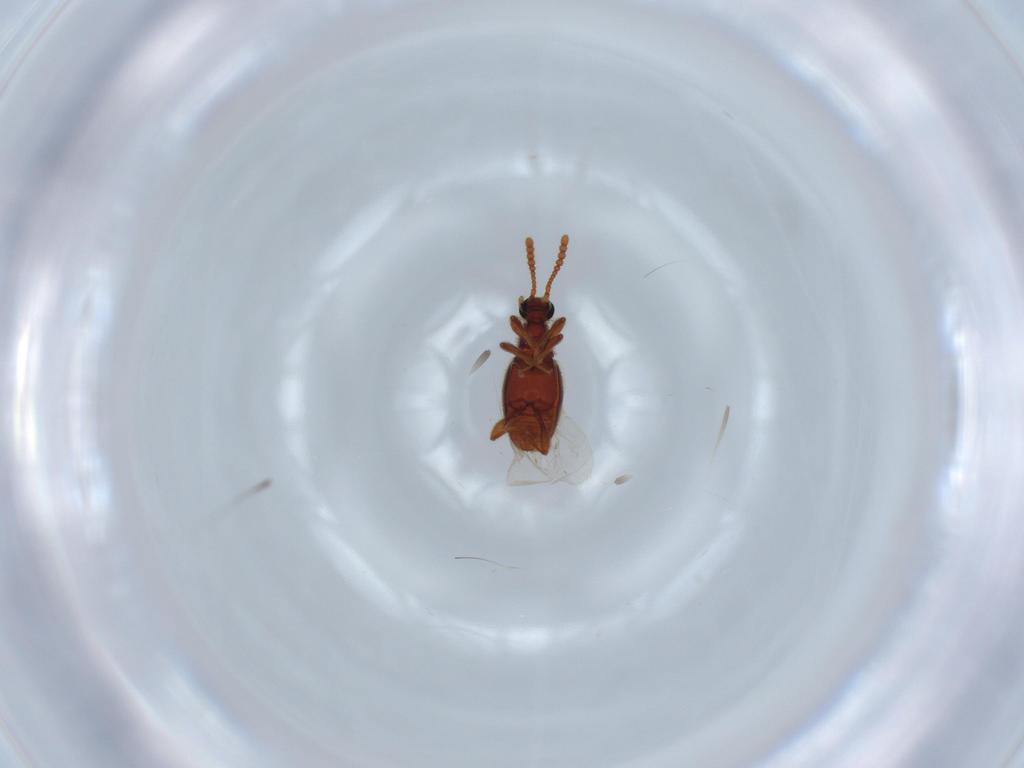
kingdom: Animalia
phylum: Arthropoda
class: Insecta
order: Coleoptera
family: Staphylinidae
